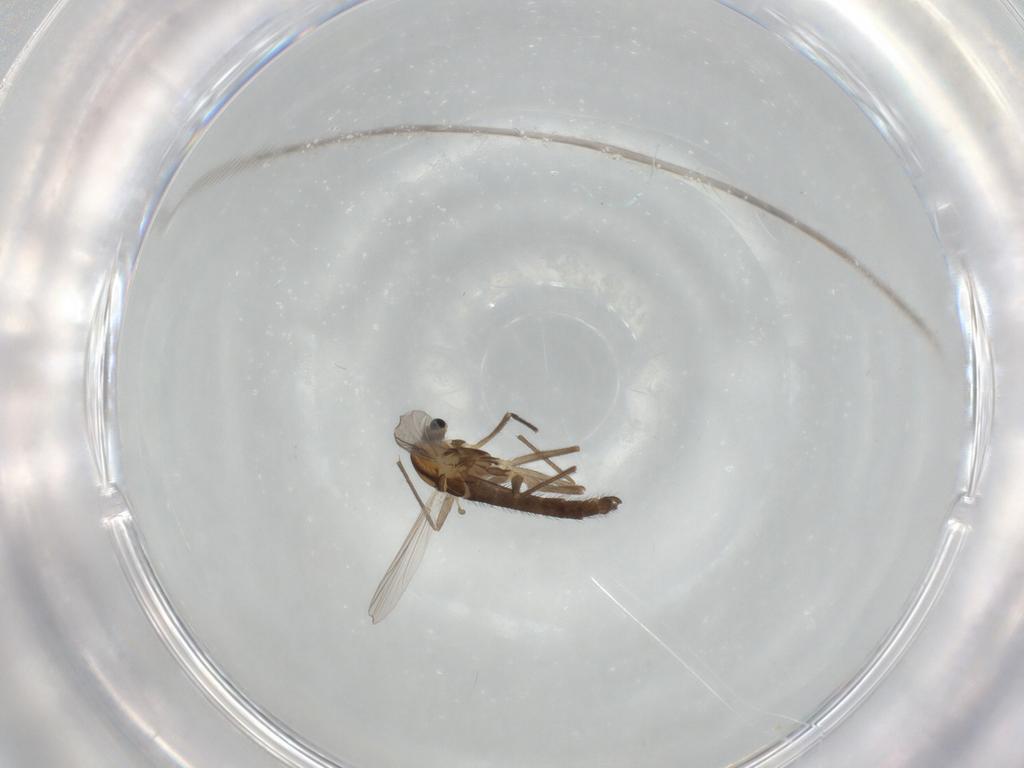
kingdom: Animalia
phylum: Arthropoda
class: Insecta
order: Diptera
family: Chironomidae
